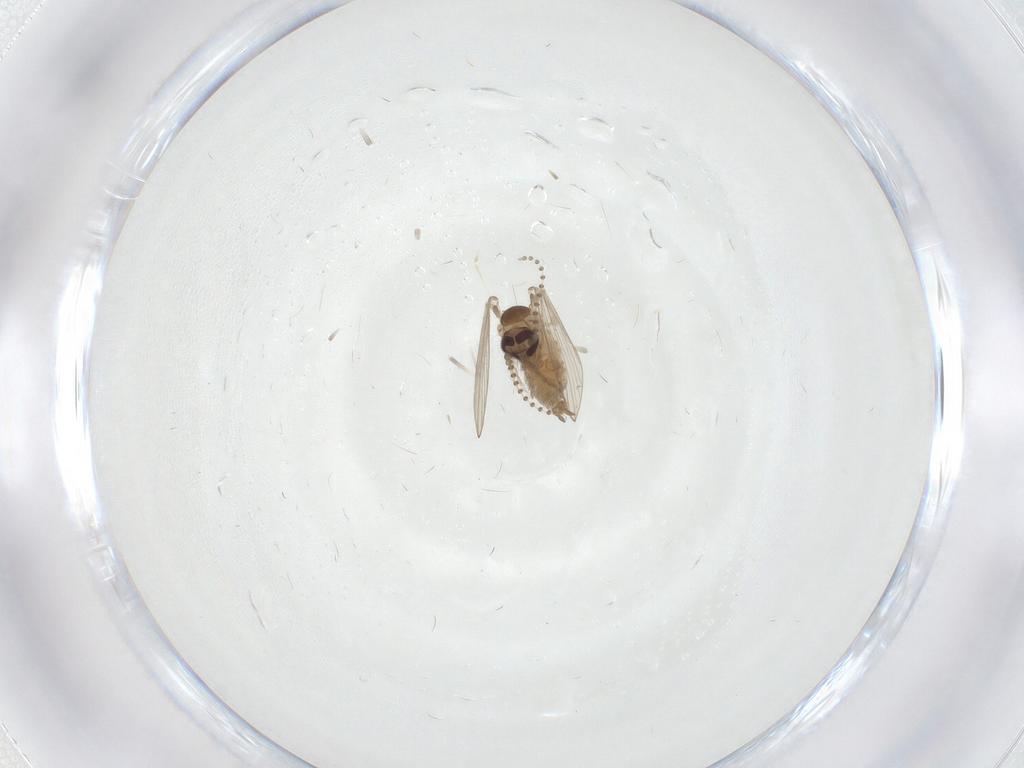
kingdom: Animalia
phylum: Arthropoda
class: Insecta
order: Diptera
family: Psychodidae
